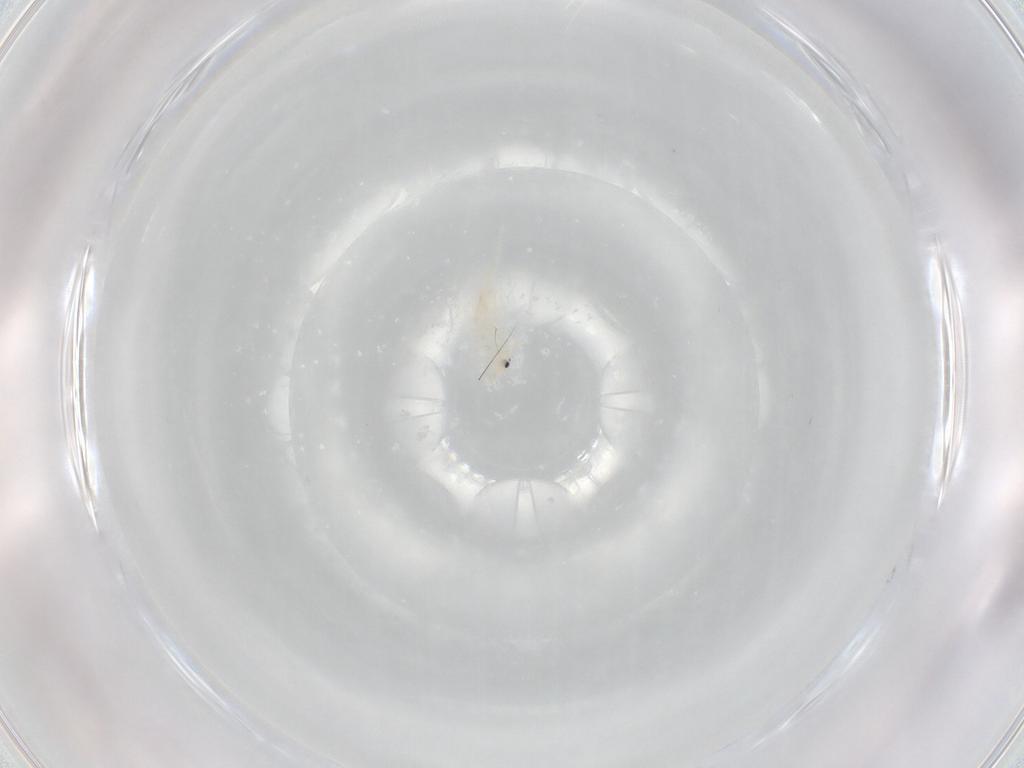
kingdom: Animalia
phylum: Arthropoda
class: Collembola
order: Entomobryomorpha
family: Entomobryidae
